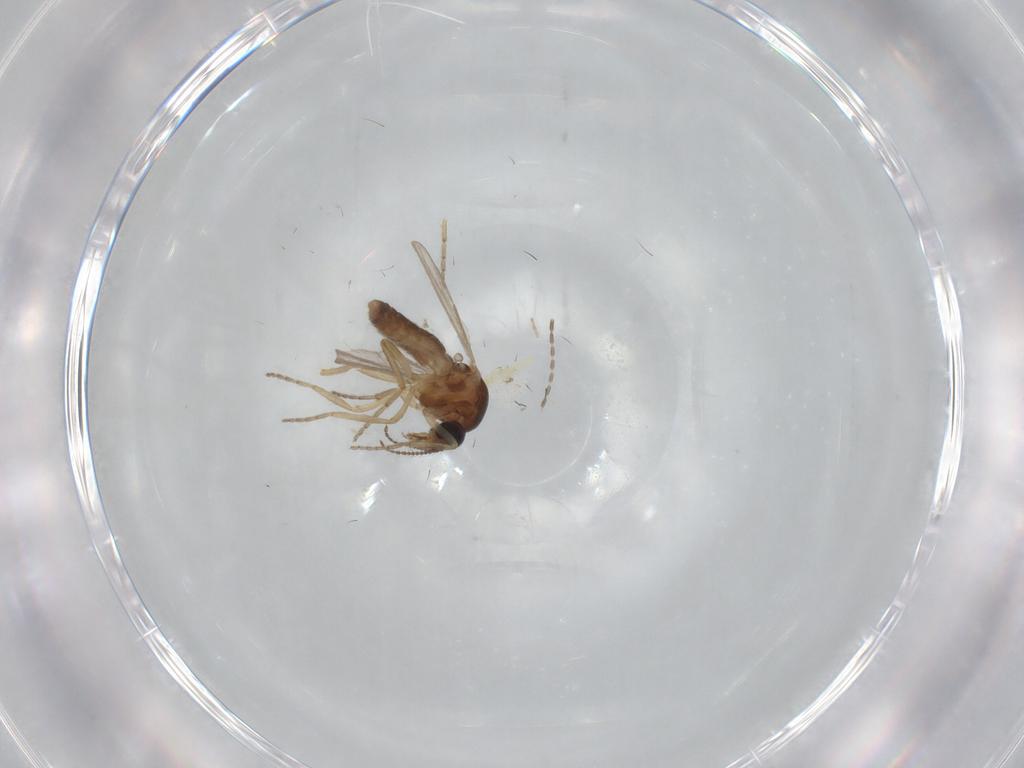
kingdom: Animalia
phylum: Arthropoda
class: Insecta
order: Diptera
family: Ceratopogonidae
